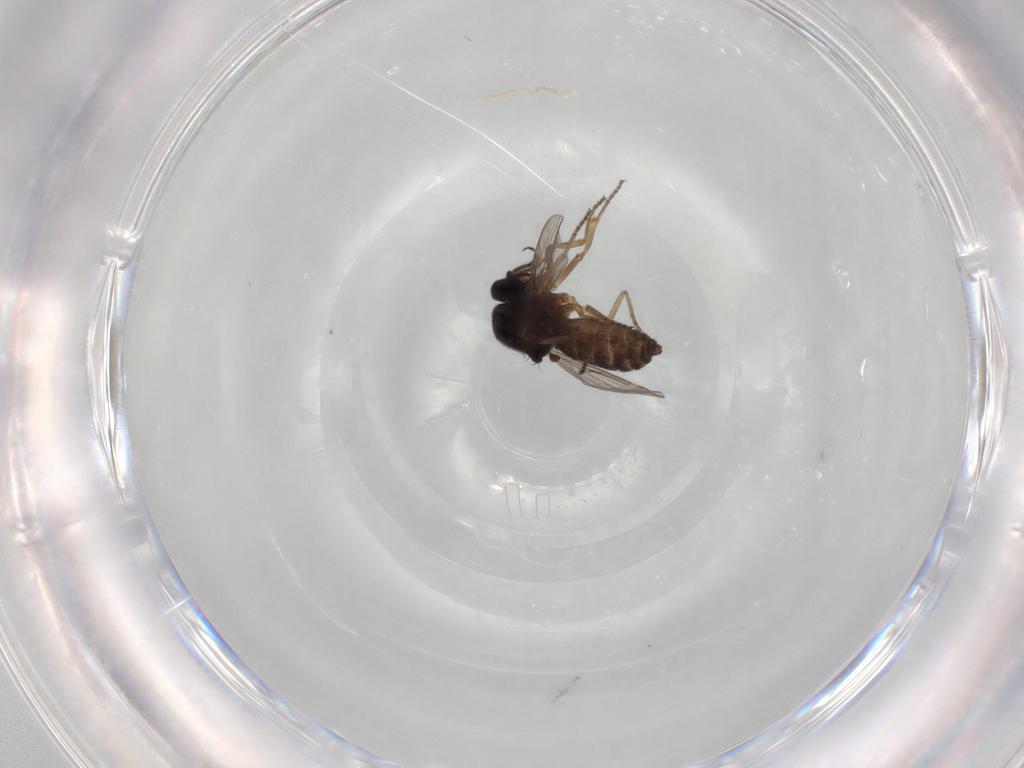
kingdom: Animalia
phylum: Arthropoda
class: Insecta
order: Diptera
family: Ceratopogonidae
